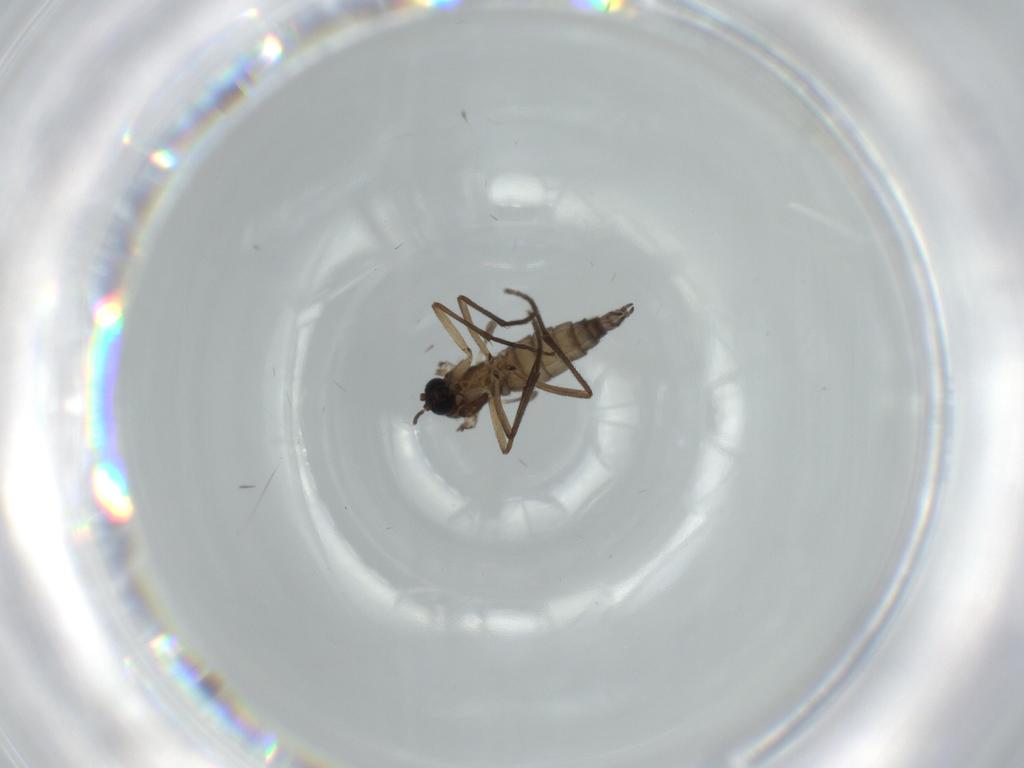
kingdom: Animalia
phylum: Arthropoda
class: Insecta
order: Diptera
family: Sciaridae
